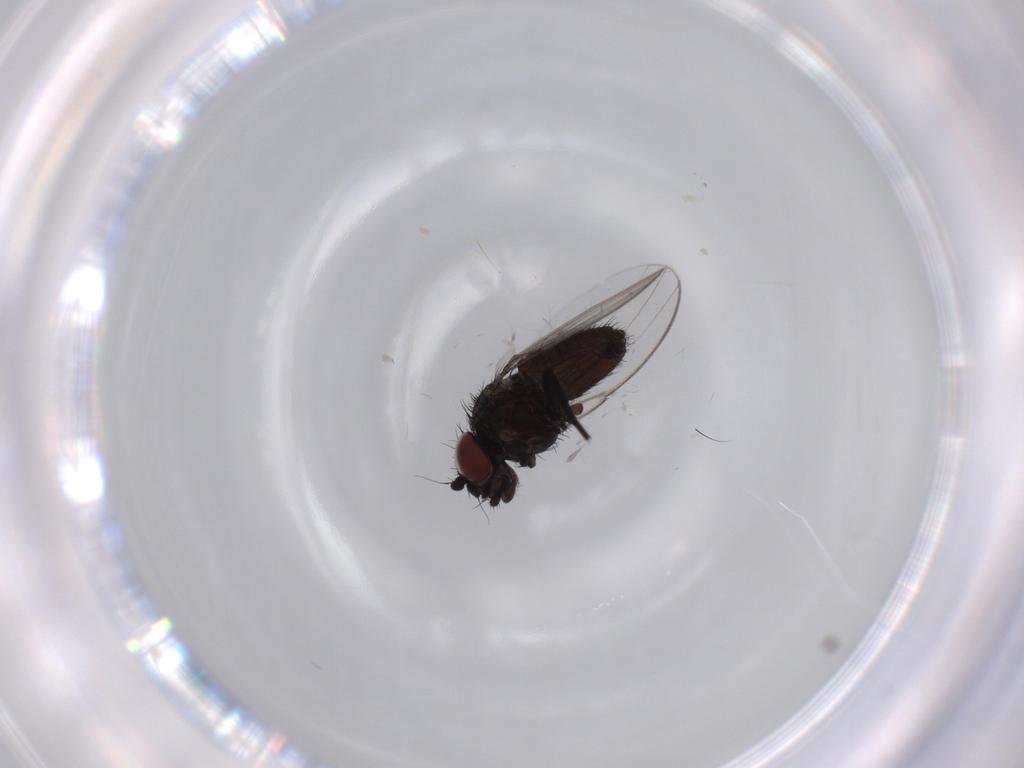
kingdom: Animalia
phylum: Arthropoda
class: Insecta
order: Diptera
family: Milichiidae
